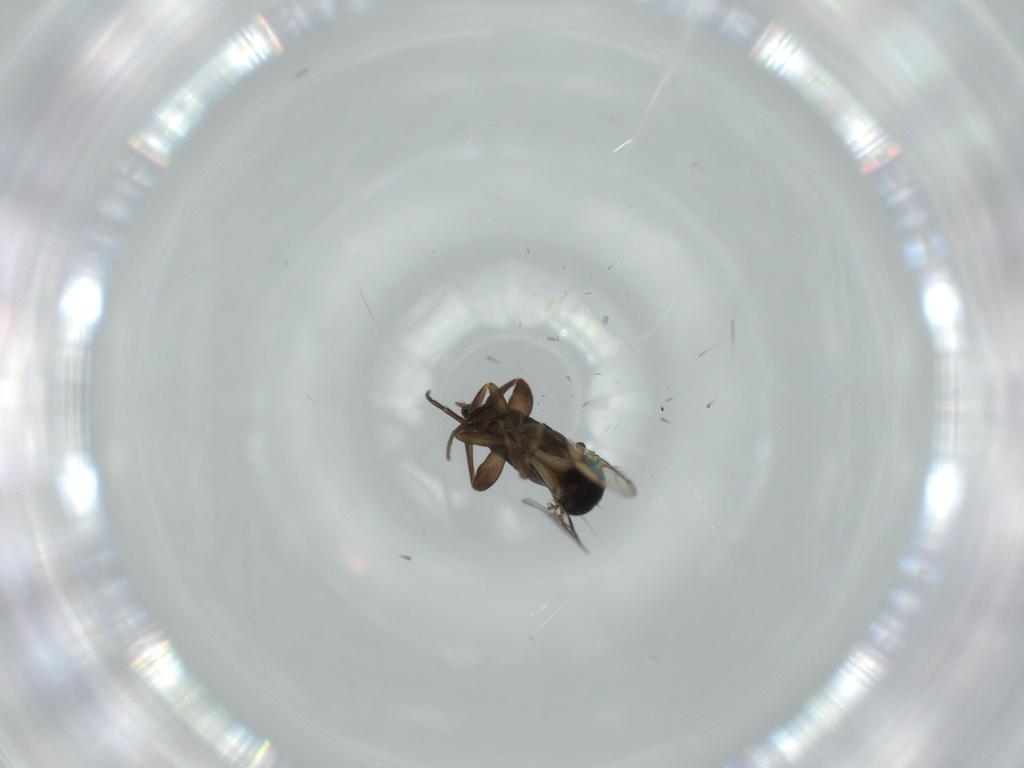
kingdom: Animalia
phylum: Arthropoda
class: Insecta
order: Diptera
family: Phoridae
